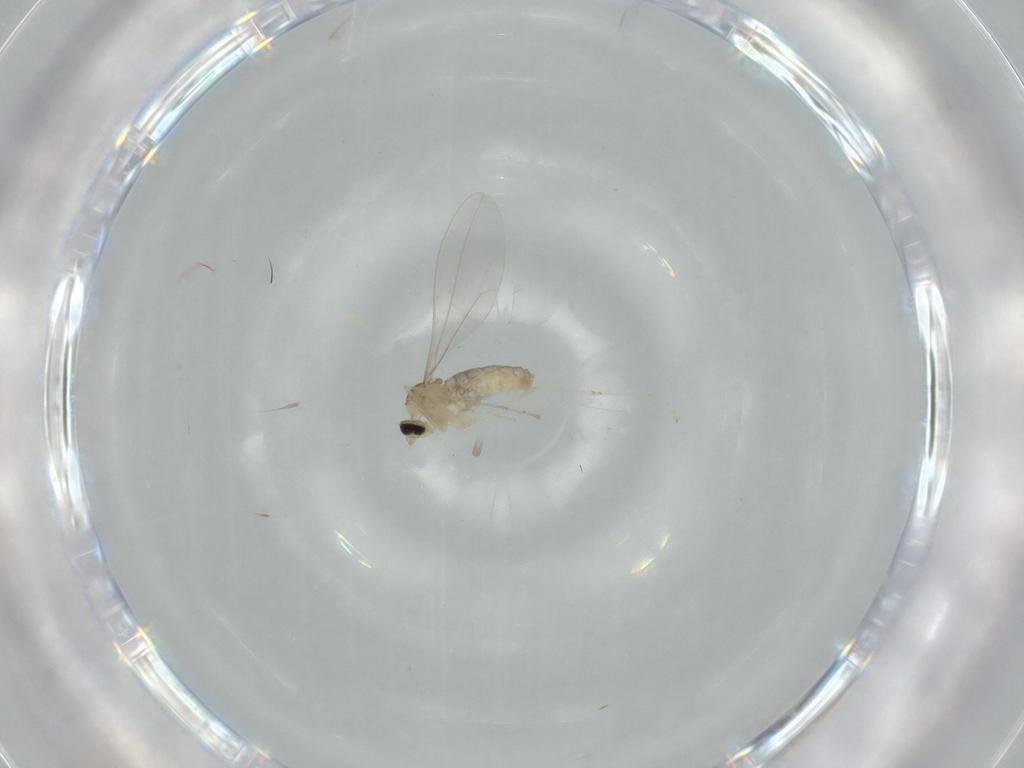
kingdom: Animalia
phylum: Arthropoda
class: Insecta
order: Diptera
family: Cecidomyiidae
